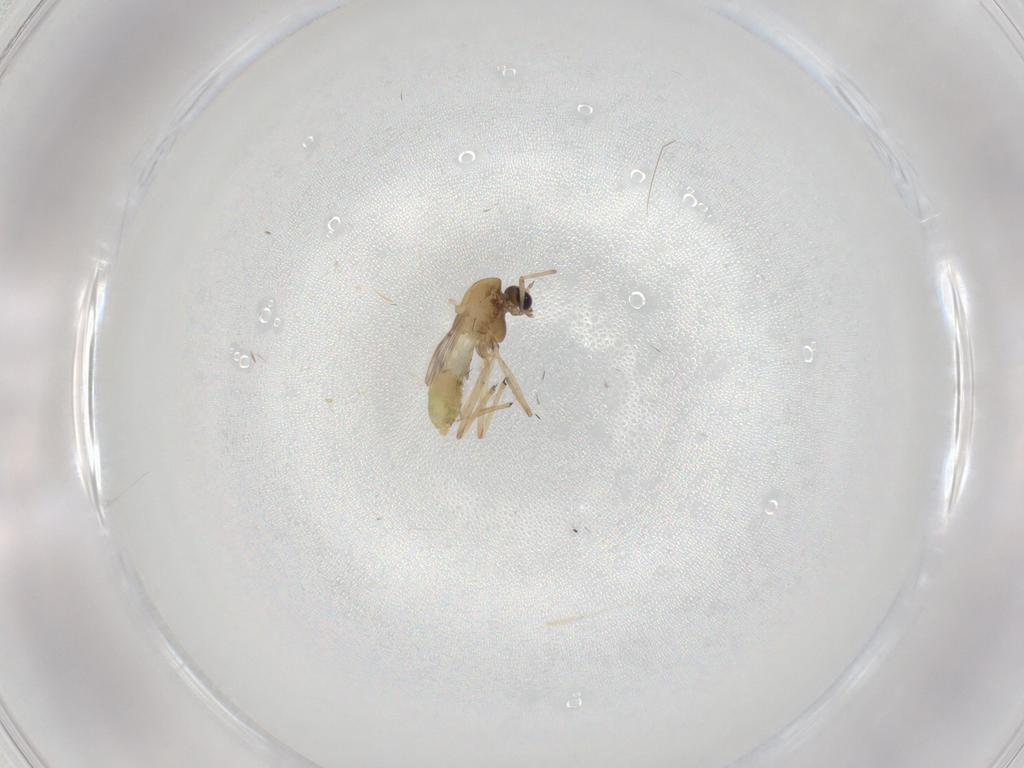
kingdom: Animalia
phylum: Arthropoda
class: Insecta
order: Diptera
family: Chironomidae
